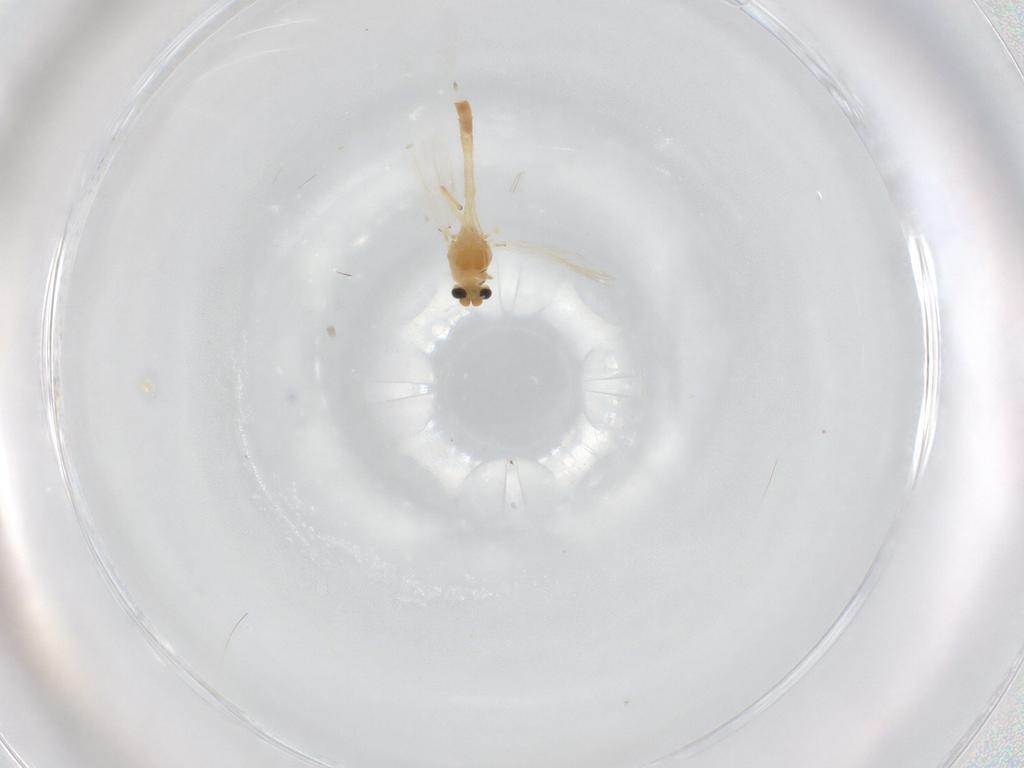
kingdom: Animalia
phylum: Arthropoda
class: Insecta
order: Diptera
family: Chironomidae
